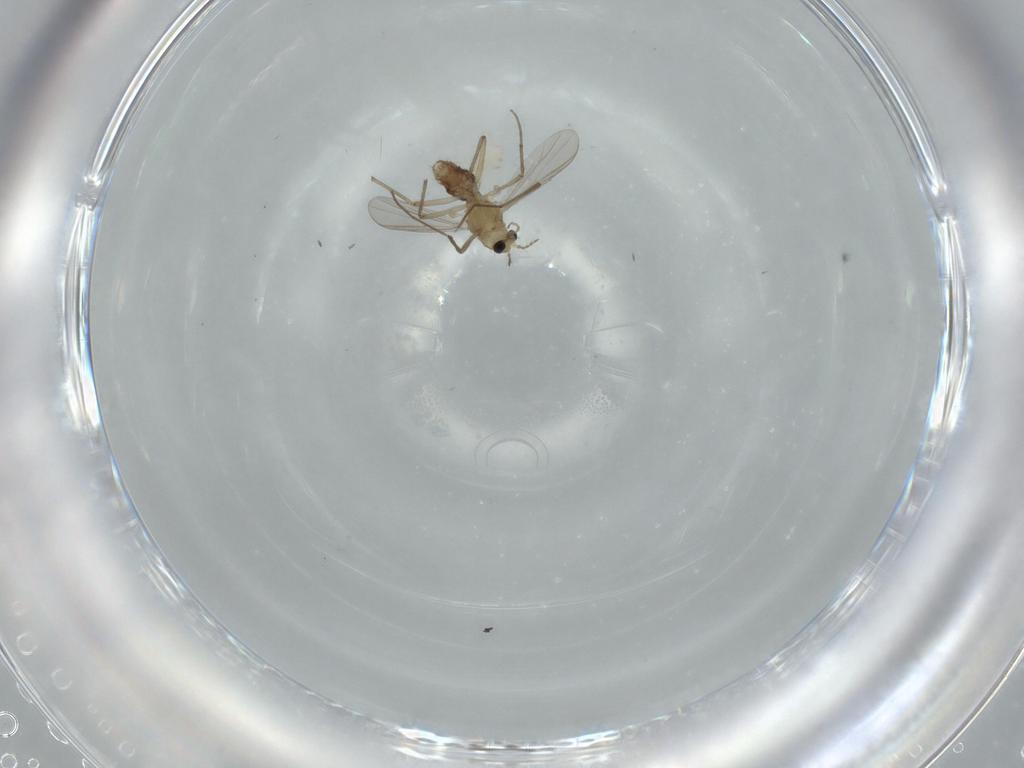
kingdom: Animalia
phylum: Arthropoda
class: Insecta
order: Diptera
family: Chironomidae
